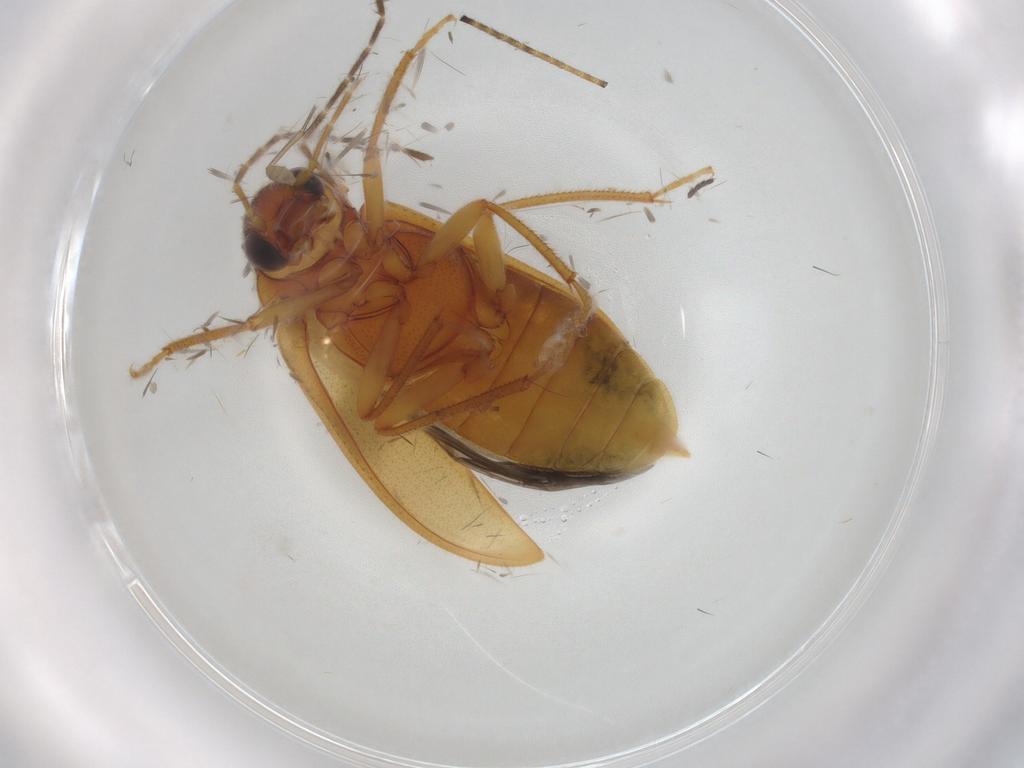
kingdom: Animalia
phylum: Arthropoda
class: Insecta
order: Coleoptera
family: Ptilodactylidae
